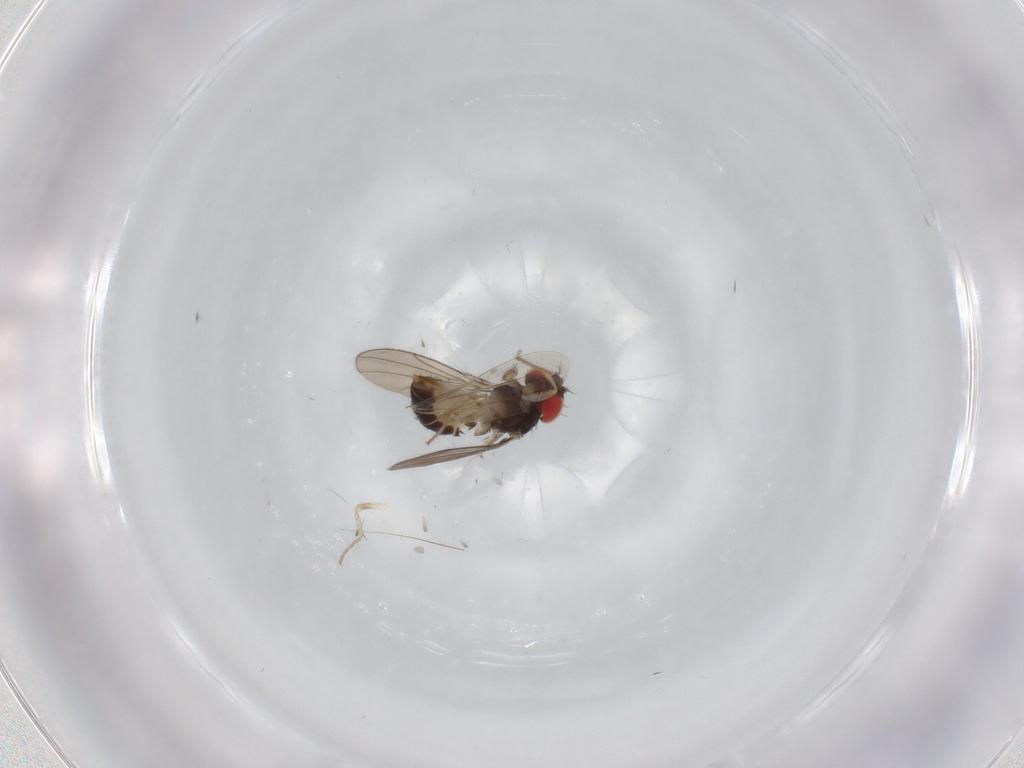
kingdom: Animalia
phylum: Arthropoda
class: Insecta
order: Diptera
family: Drosophilidae
